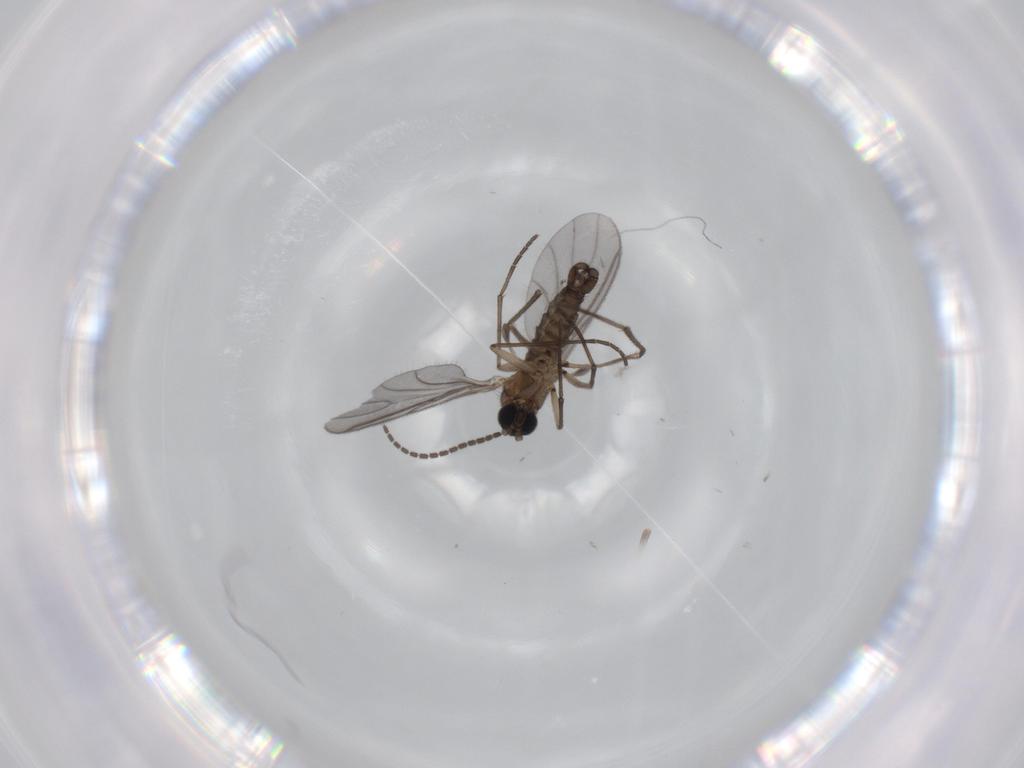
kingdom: Animalia
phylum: Arthropoda
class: Insecta
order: Diptera
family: Sciaridae
